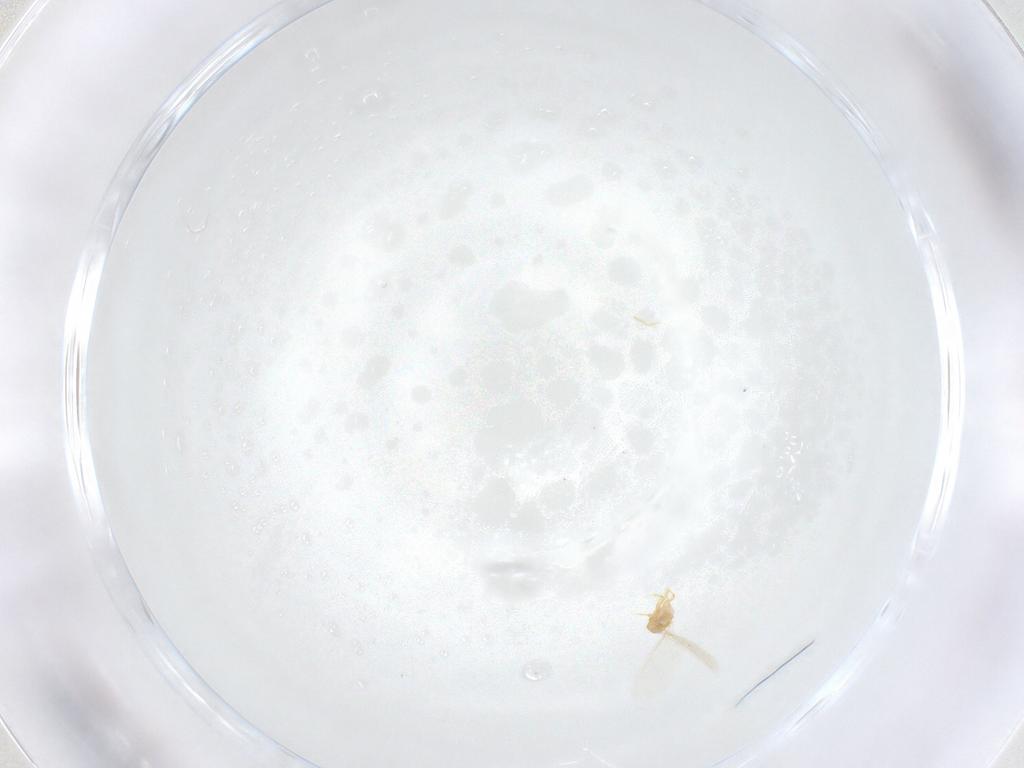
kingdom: Animalia
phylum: Arthropoda
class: Insecta
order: Hemiptera
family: Diaspididae
